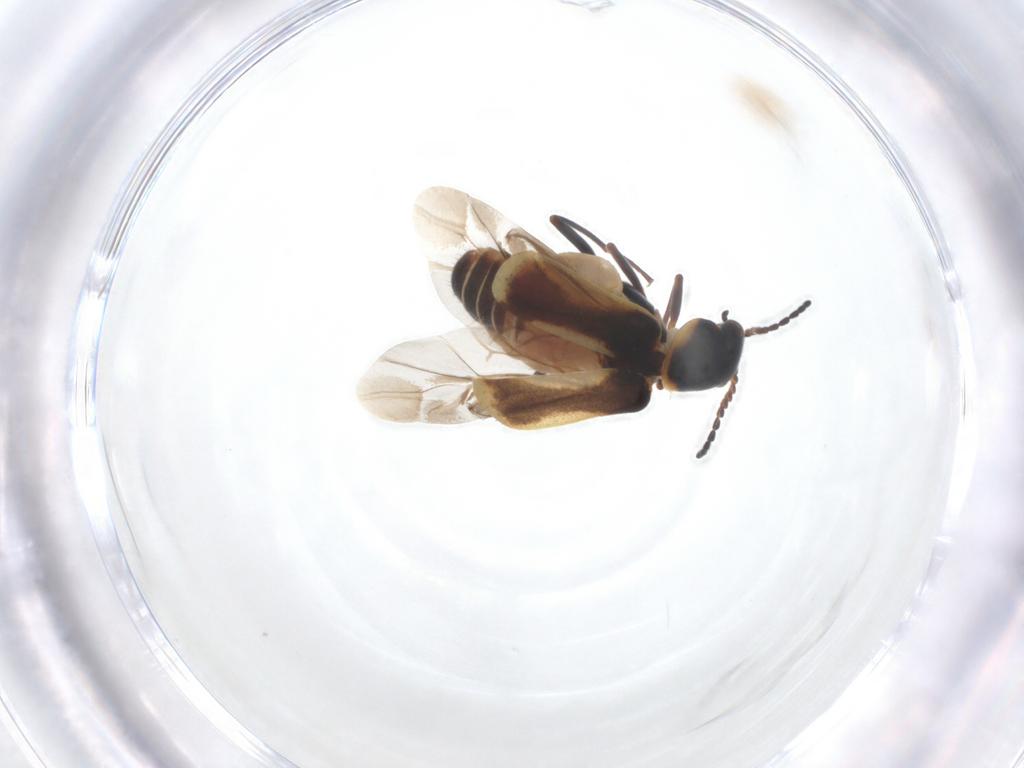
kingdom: Animalia
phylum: Arthropoda
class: Insecta
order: Coleoptera
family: Melyridae
